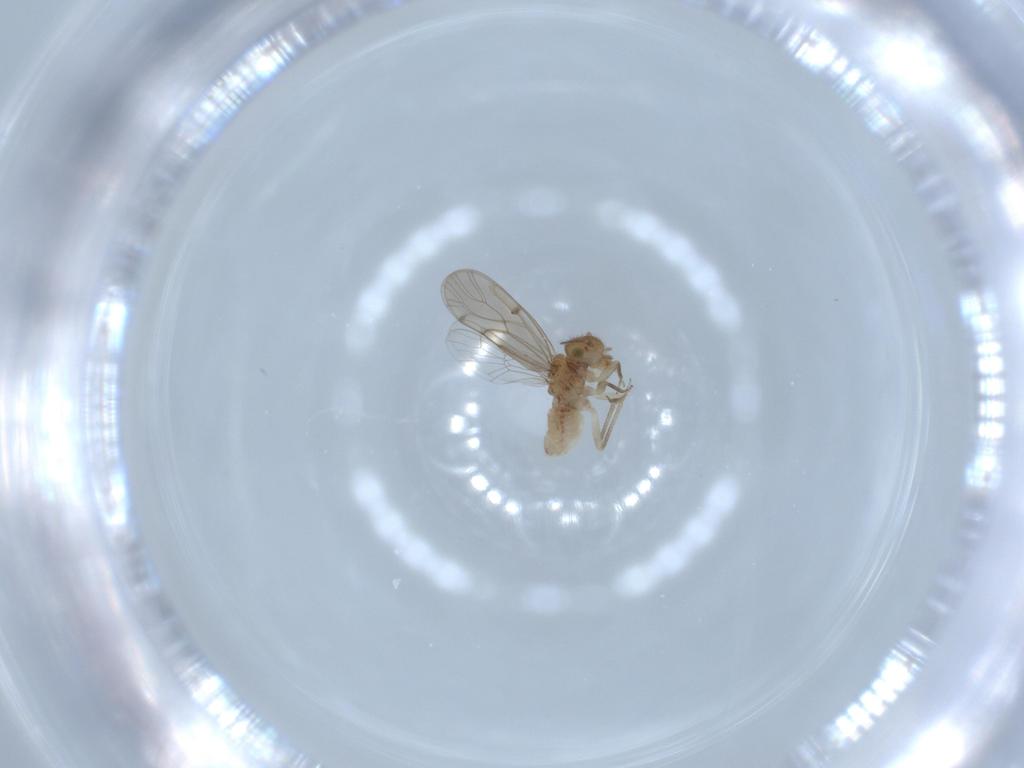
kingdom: Animalia
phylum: Arthropoda
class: Insecta
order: Psocodea
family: Ectopsocidae
